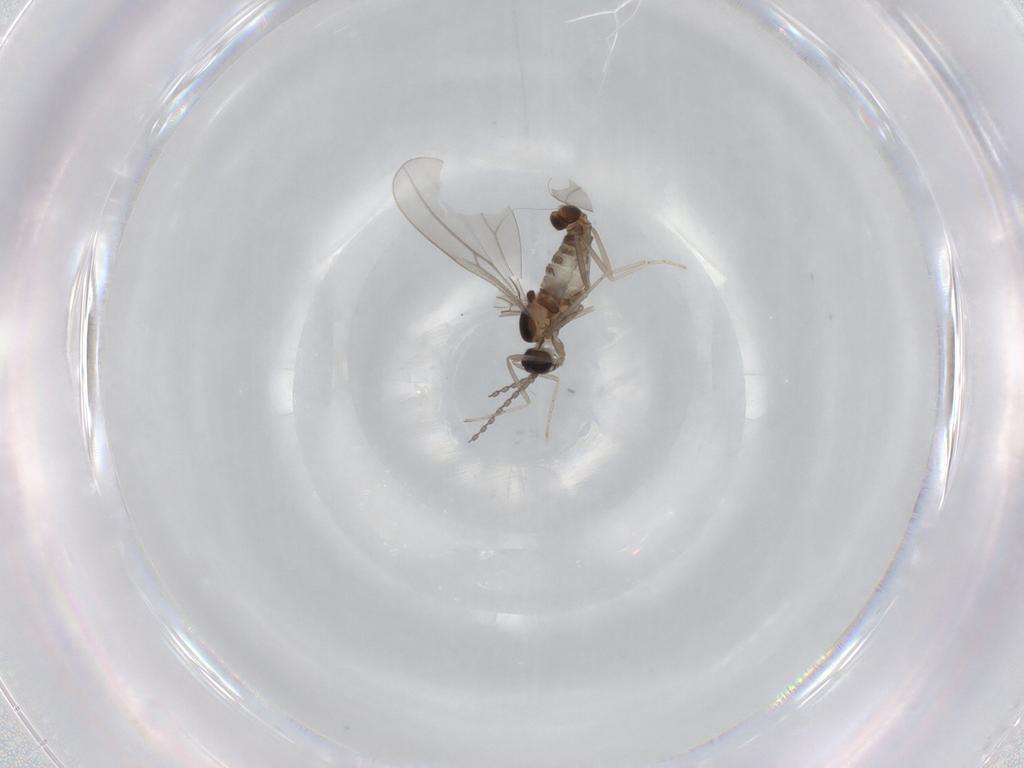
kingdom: Animalia
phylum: Arthropoda
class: Insecta
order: Diptera
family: Cecidomyiidae
